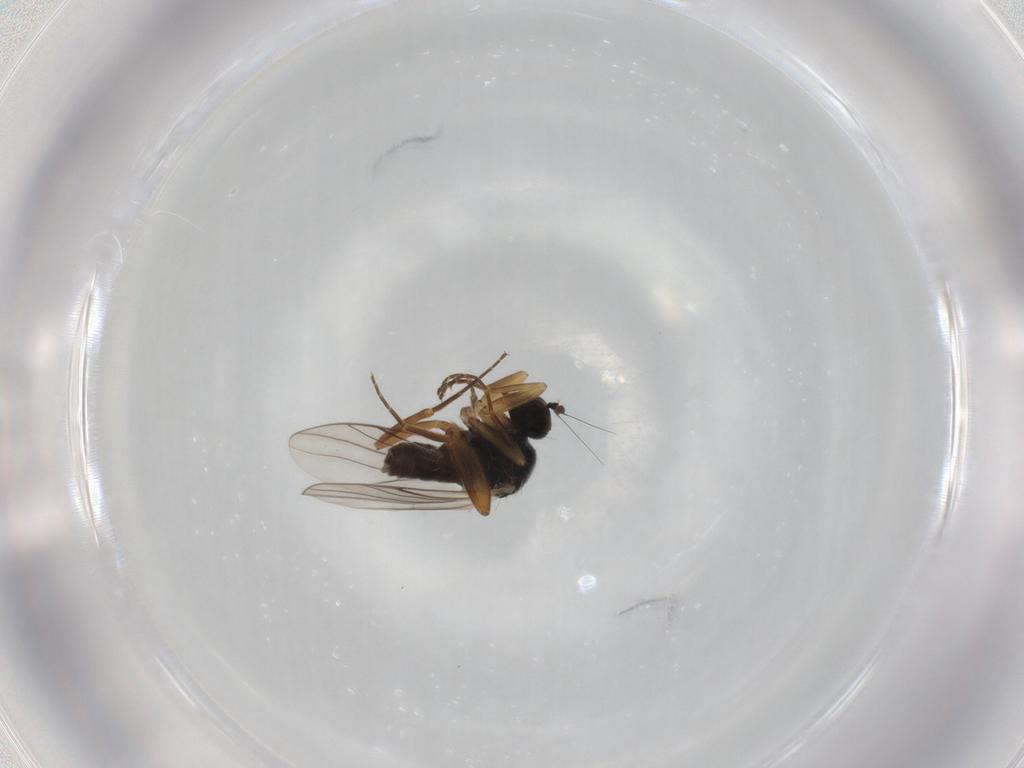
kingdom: Animalia
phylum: Arthropoda
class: Insecta
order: Diptera
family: Hybotidae
